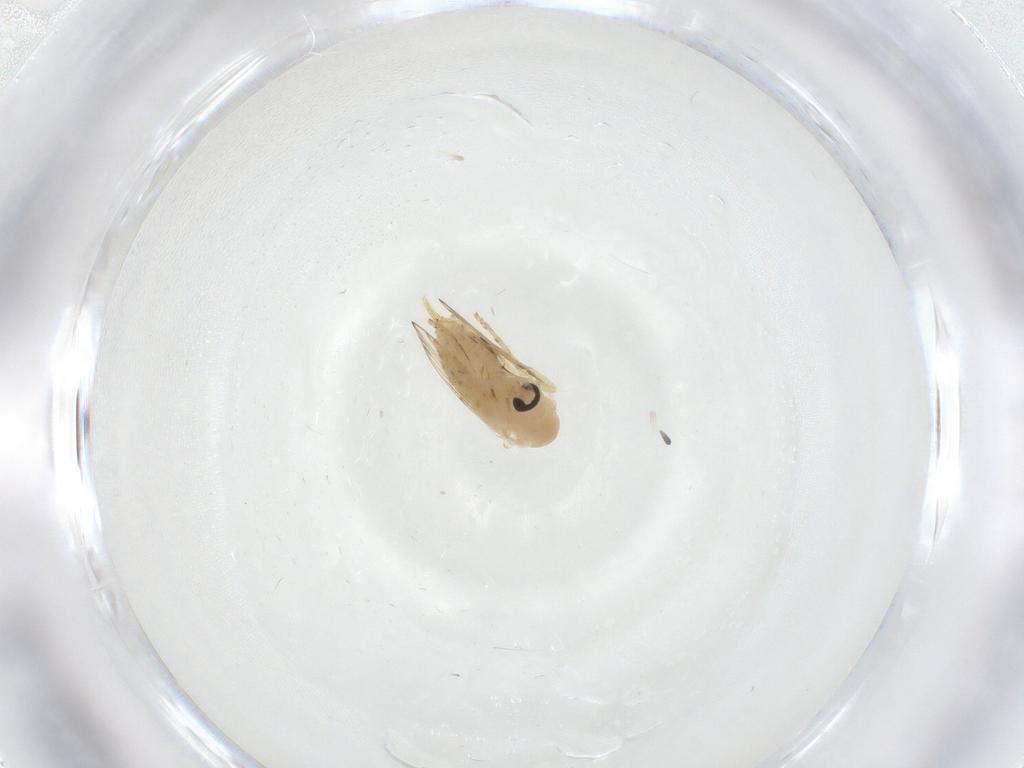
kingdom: Animalia
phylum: Arthropoda
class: Insecta
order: Diptera
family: Psychodidae
